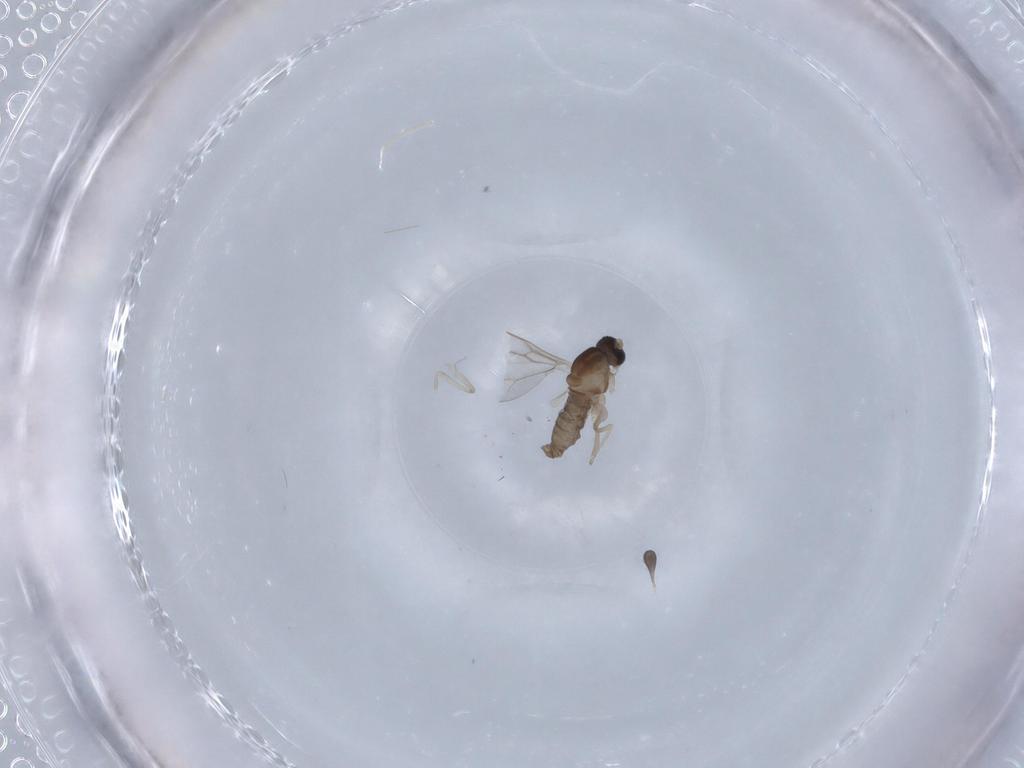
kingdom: Animalia
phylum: Arthropoda
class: Insecta
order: Diptera
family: Cecidomyiidae
